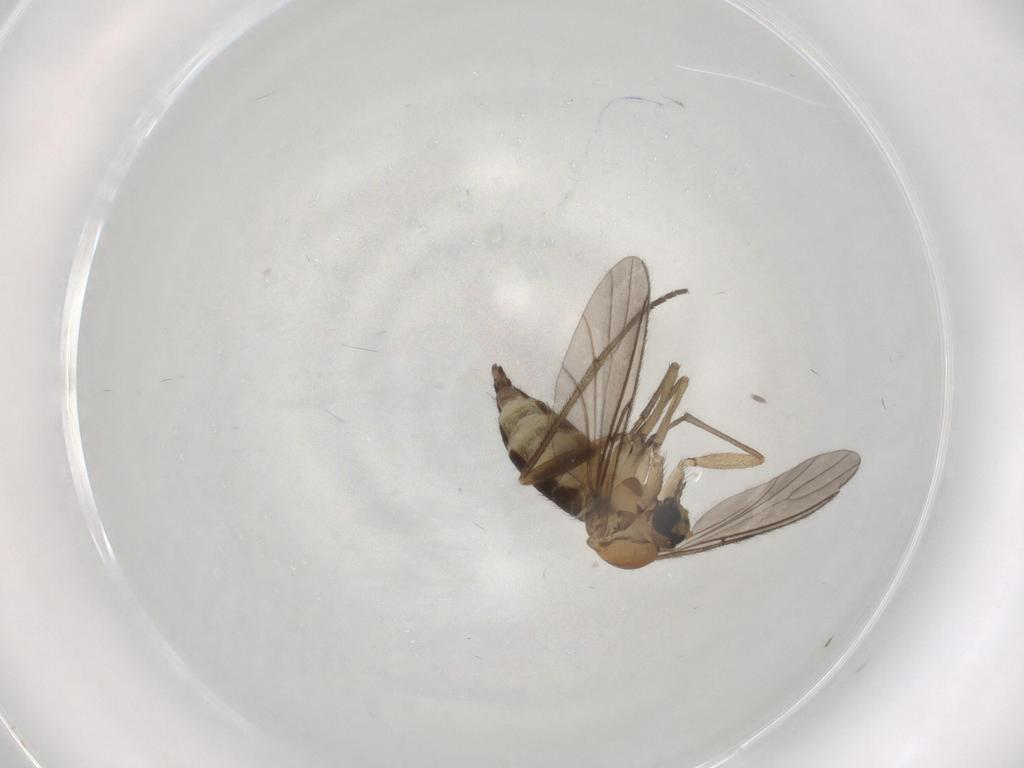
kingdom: Animalia
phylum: Arthropoda
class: Insecta
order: Diptera
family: Sciaridae
